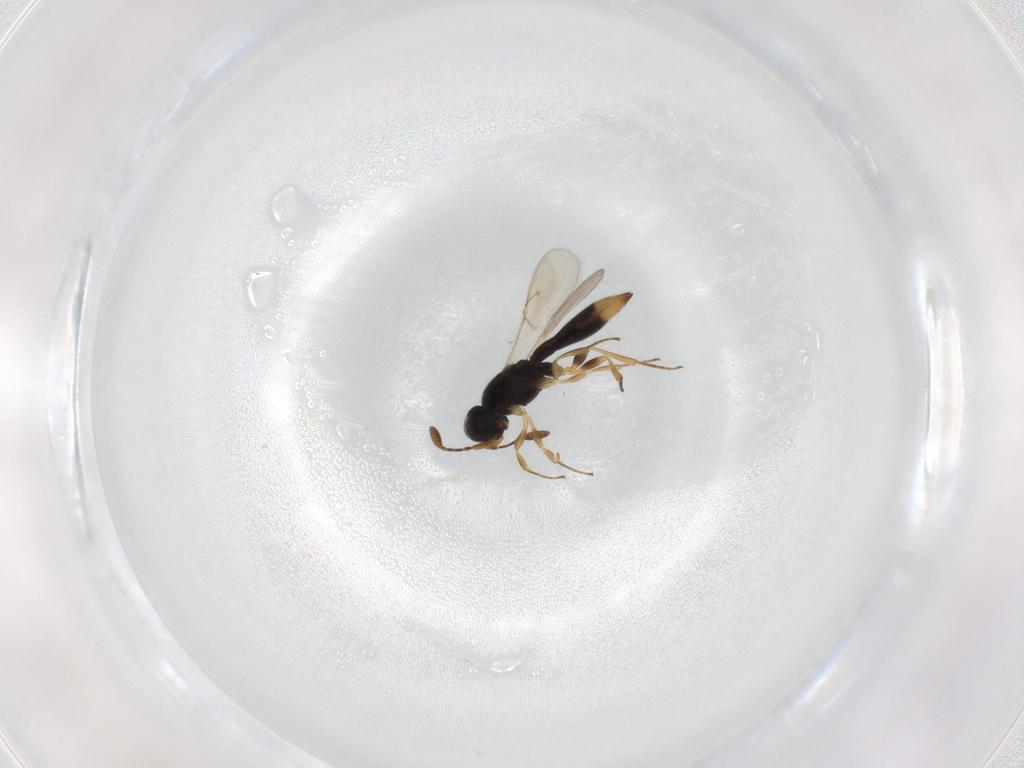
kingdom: Animalia
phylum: Arthropoda
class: Insecta
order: Hymenoptera
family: Scelionidae
